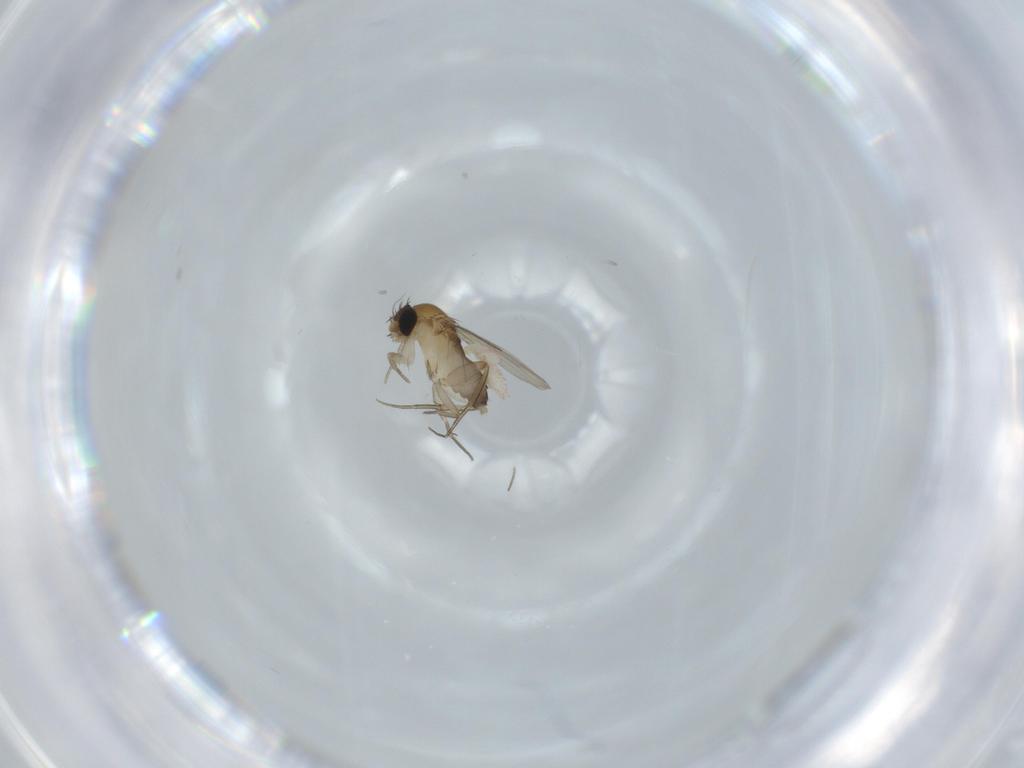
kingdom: Animalia
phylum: Arthropoda
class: Insecta
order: Diptera
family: Phoridae
